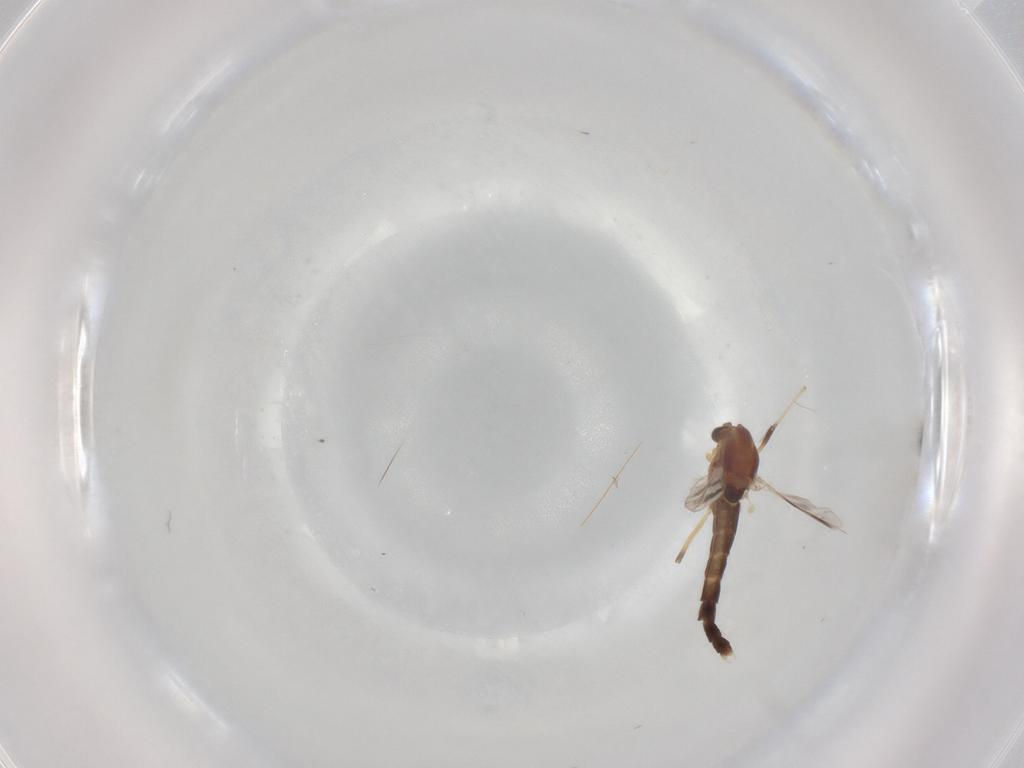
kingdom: Animalia
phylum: Arthropoda
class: Insecta
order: Diptera
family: Chironomidae
